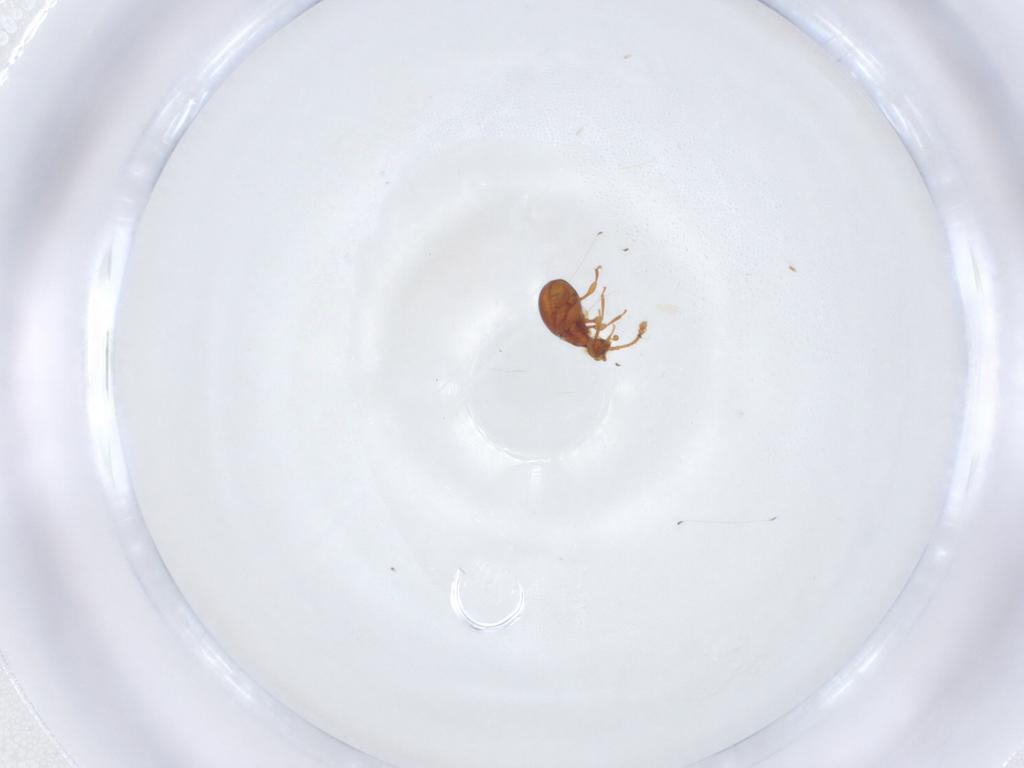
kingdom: Animalia
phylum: Arthropoda
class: Insecta
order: Coleoptera
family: Staphylinidae
